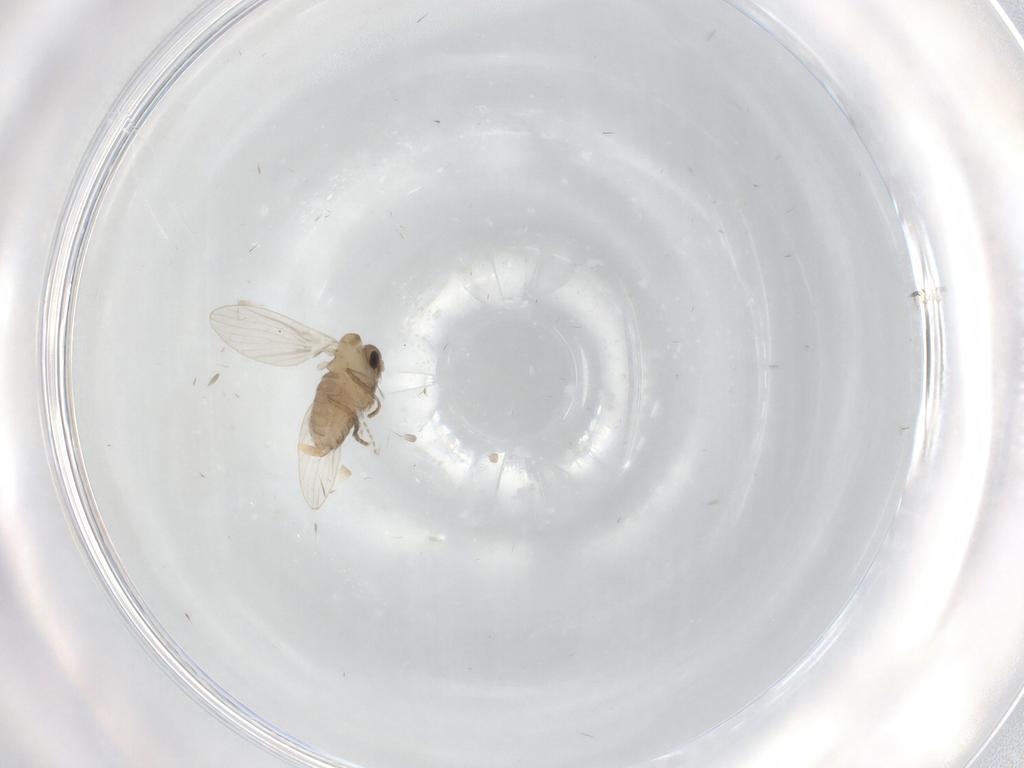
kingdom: Animalia
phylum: Arthropoda
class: Insecta
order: Diptera
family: Psychodidae
